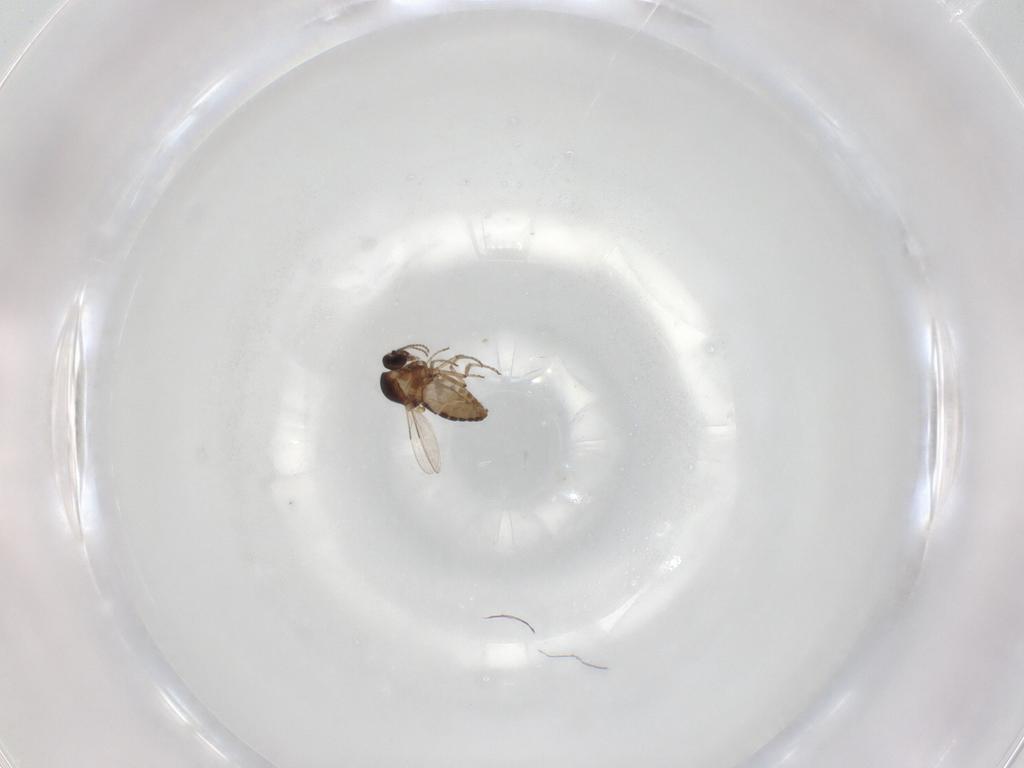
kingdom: Animalia
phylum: Arthropoda
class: Insecta
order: Diptera
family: Ceratopogonidae
